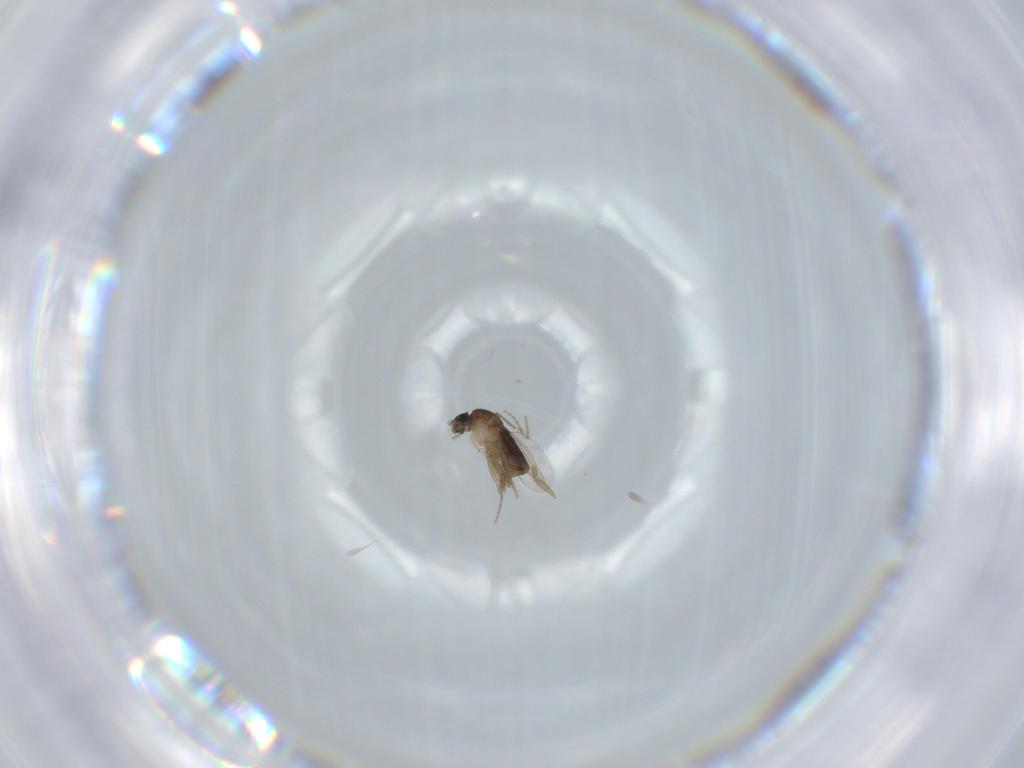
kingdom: Animalia
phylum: Arthropoda
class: Insecta
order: Diptera
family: Phoridae
